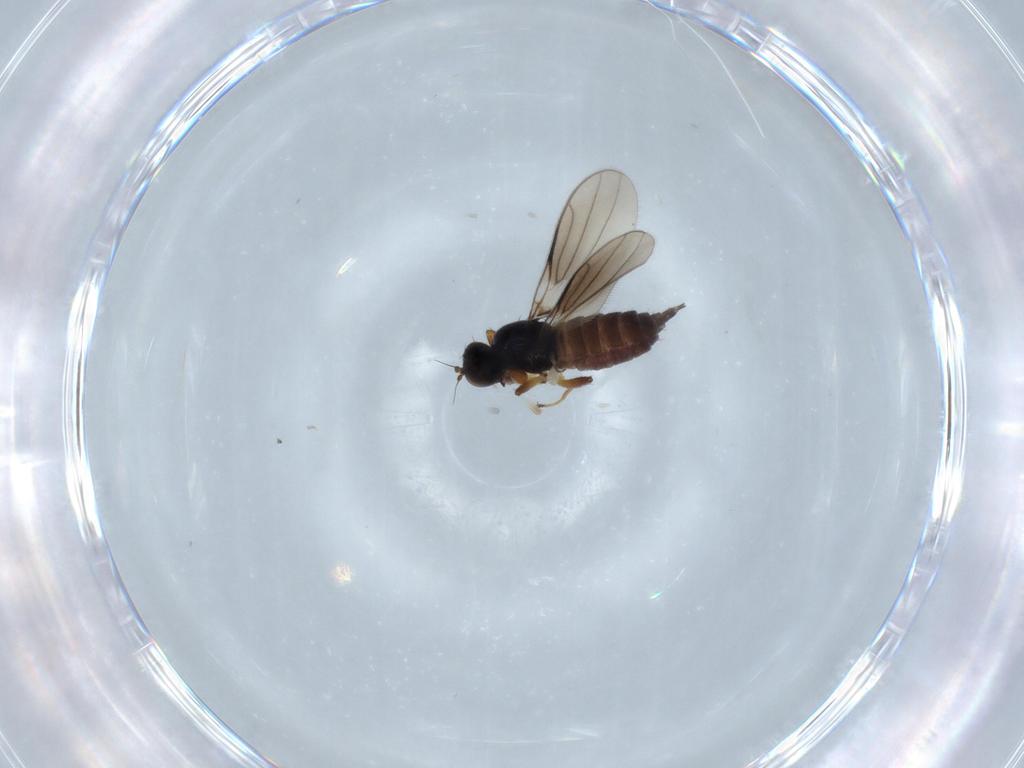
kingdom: Animalia
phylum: Arthropoda
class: Insecta
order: Diptera
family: Hybotidae
